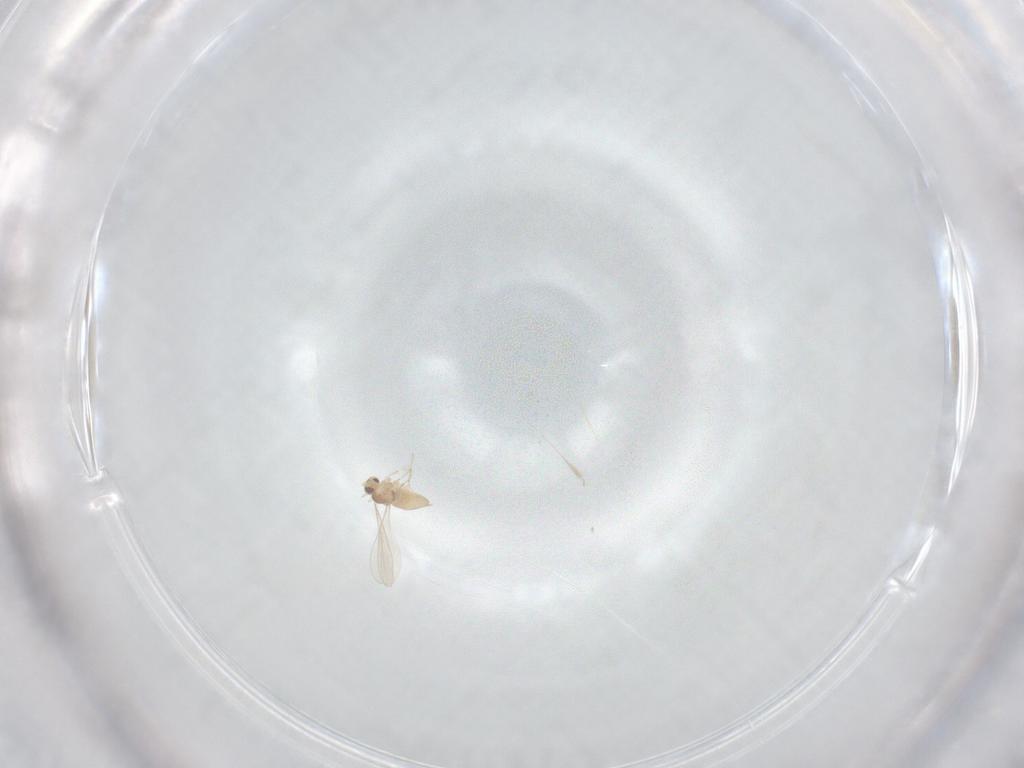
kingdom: Animalia
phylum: Arthropoda
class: Insecta
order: Diptera
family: Cecidomyiidae
